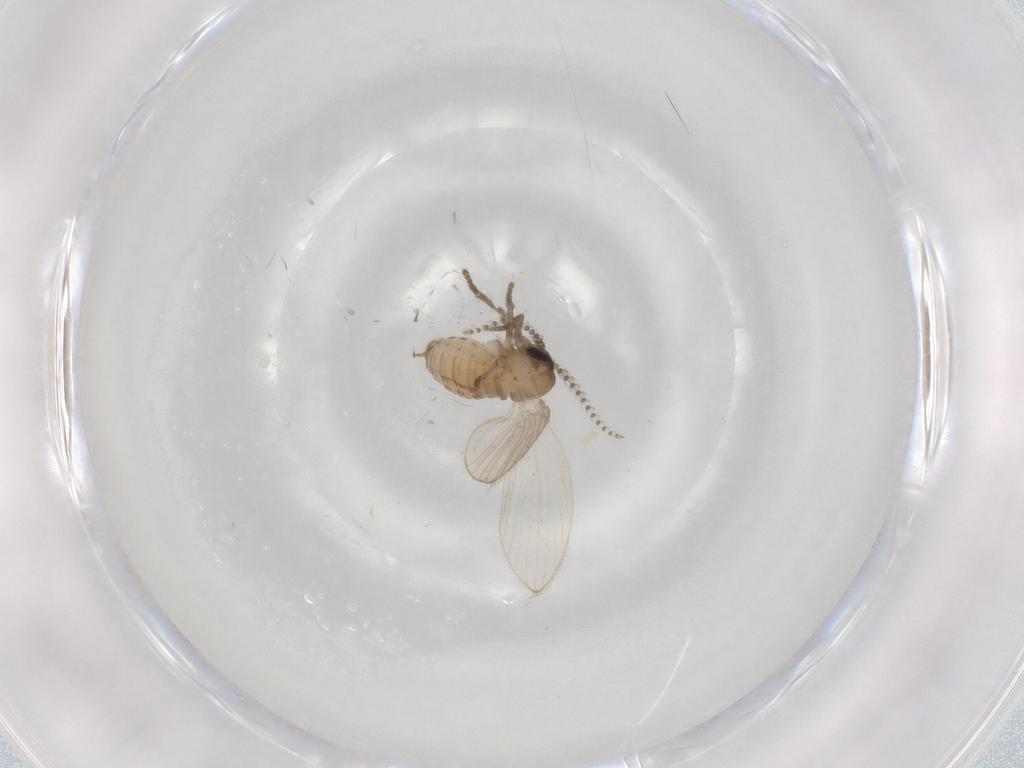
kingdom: Animalia
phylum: Arthropoda
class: Insecta
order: Diptera
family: Psychodidae
